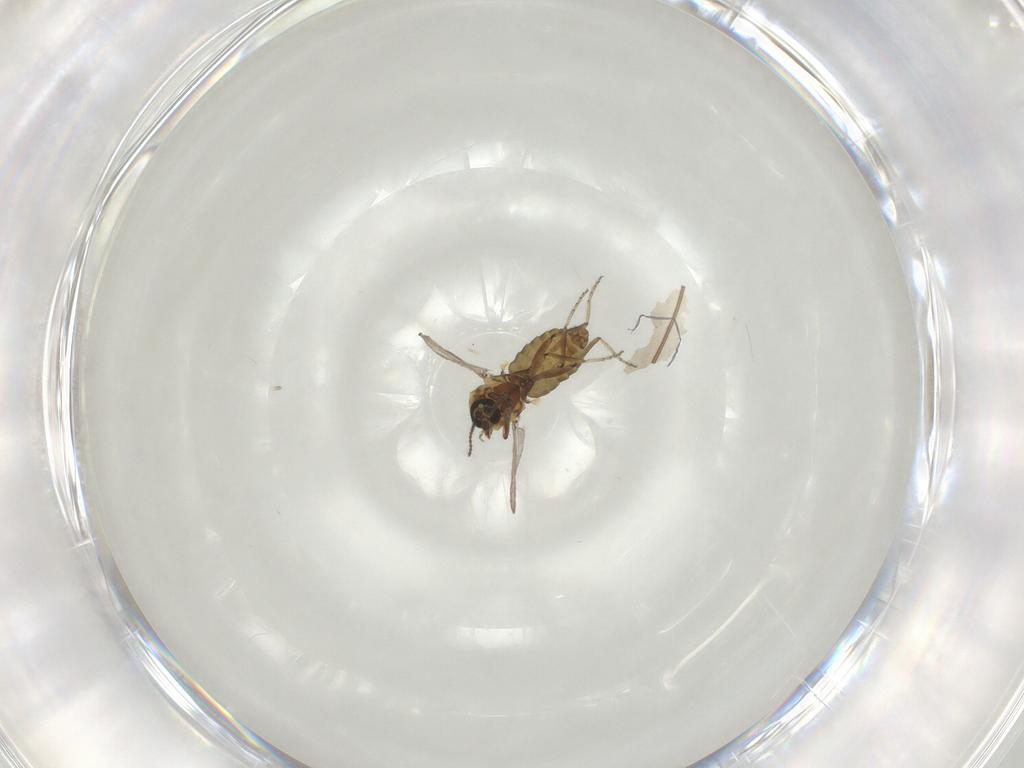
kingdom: Animalia
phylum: Arthropoda
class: Insecta
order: Diptera
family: Ceratopogonidae
